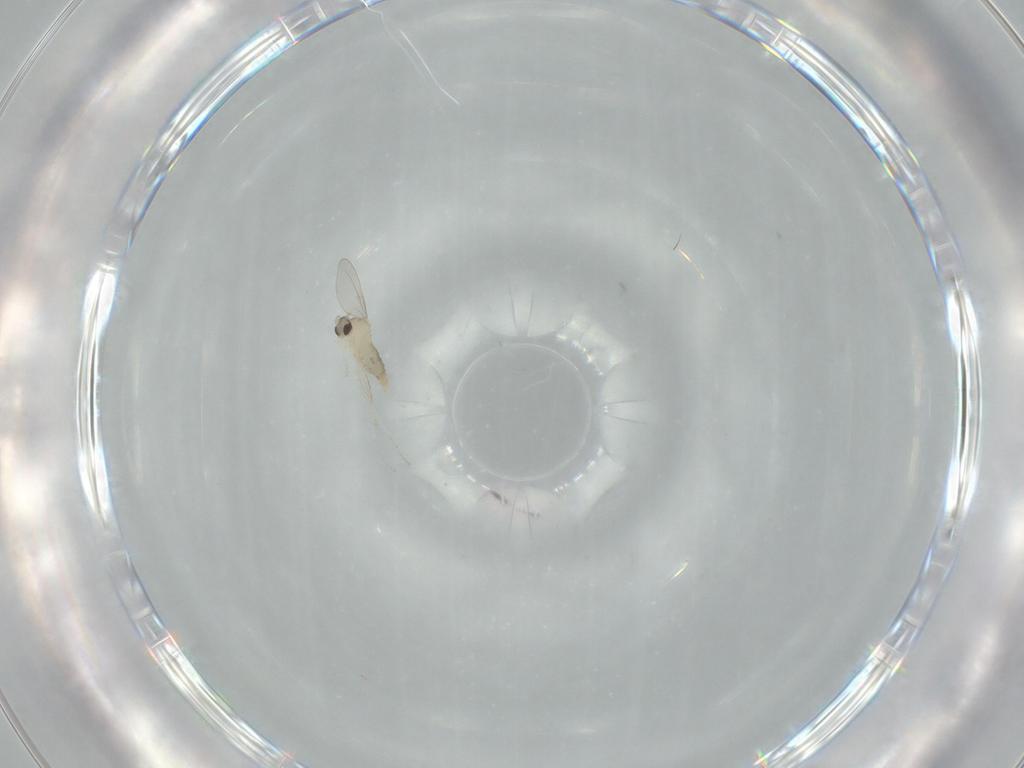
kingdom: Animalia
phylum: Arthropoda
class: Insecta
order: Diptera
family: Cecidomyiidae
